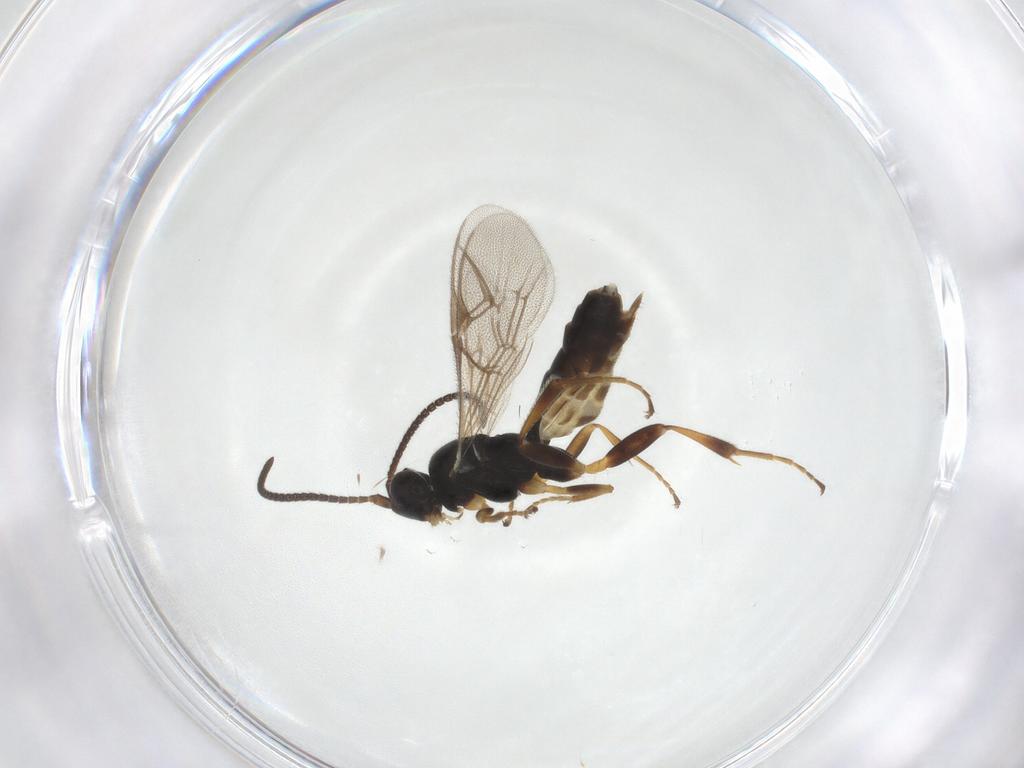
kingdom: Animalia
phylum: Arthropoda
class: Insecta
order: Hymenoptera
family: Ichneumonidae
